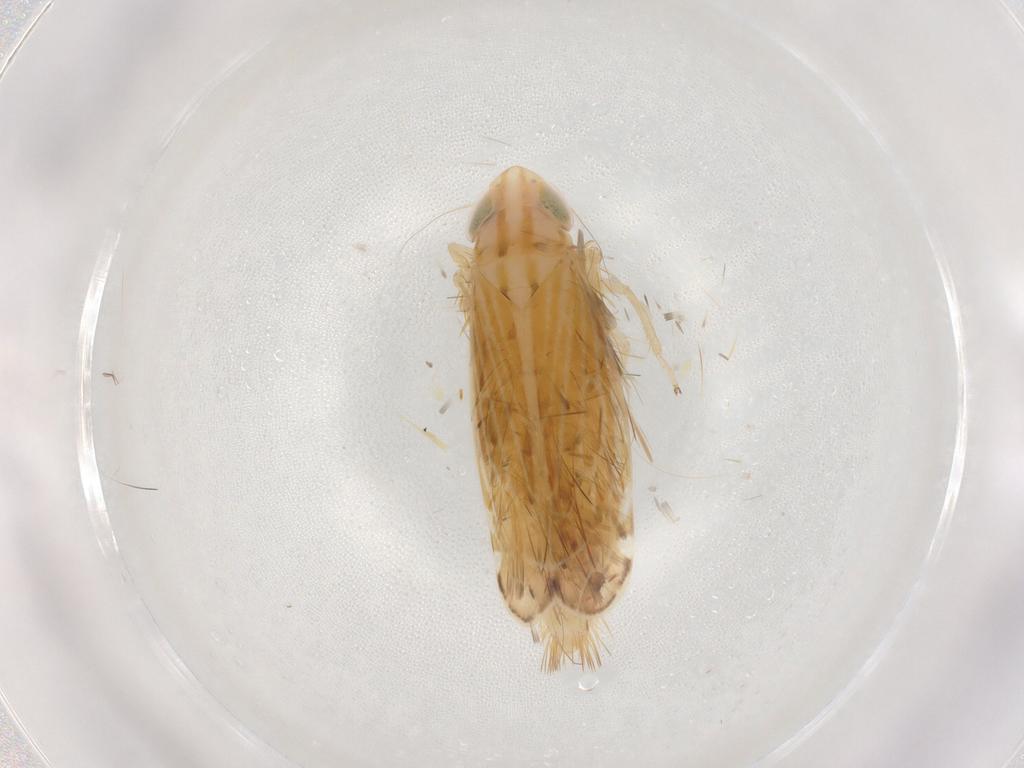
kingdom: Animalia
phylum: Arthropoda
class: Insecta
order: Hemiptera
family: Cicadellidae
